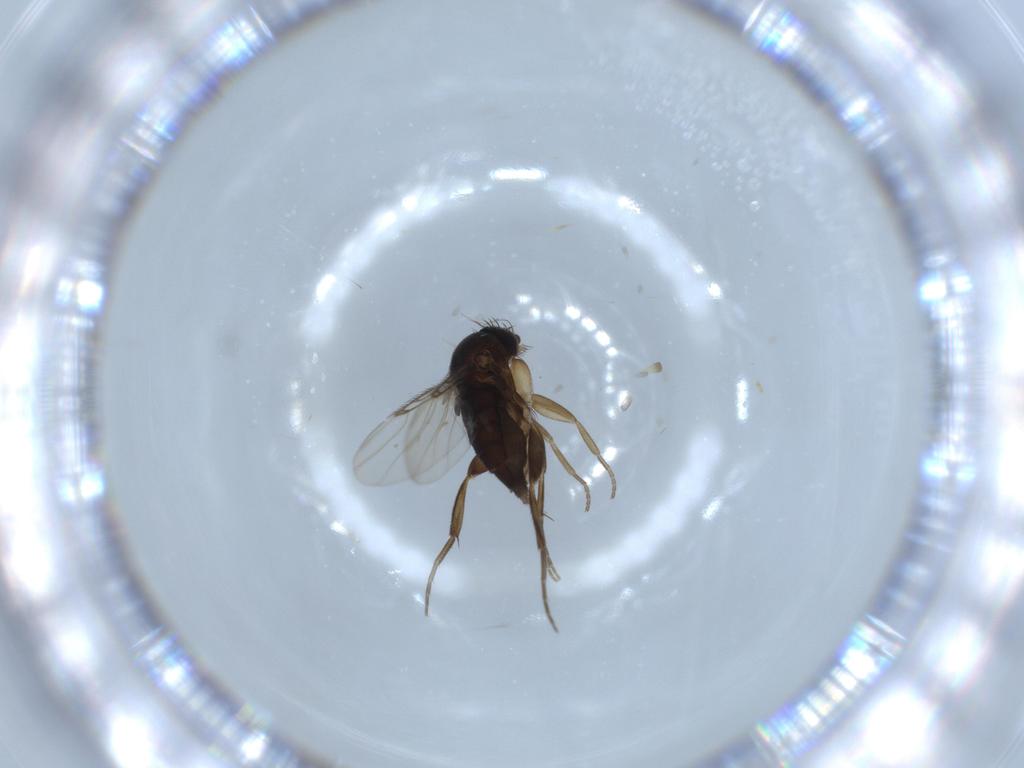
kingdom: Animalia
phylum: Arthropoda
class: Insecta
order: Diptera
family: Phoridae
